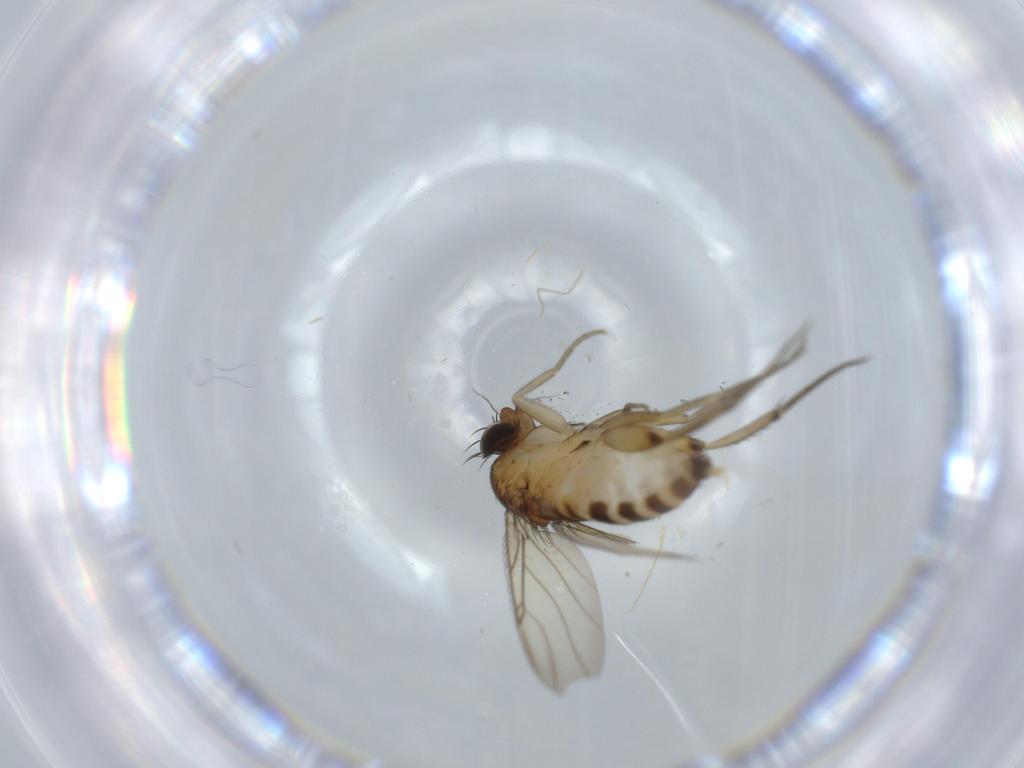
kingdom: Animalia
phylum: Arthropoda
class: Insecta
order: Diptera
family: Phoridae
